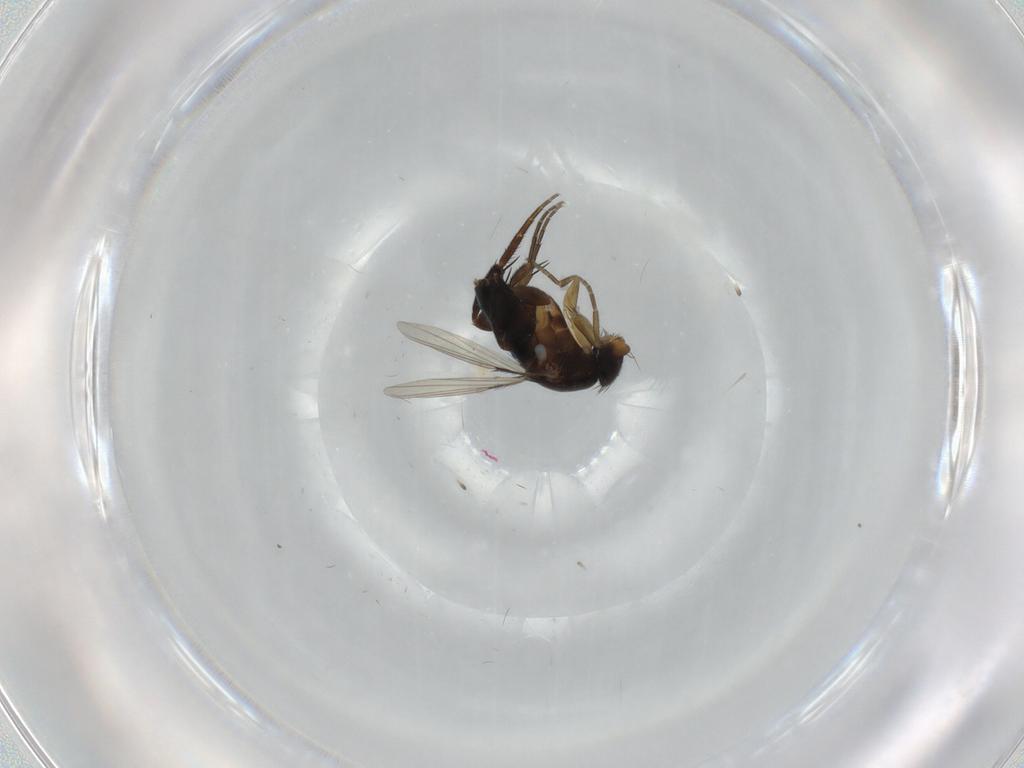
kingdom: Animalia
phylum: Arthropoda
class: Insecta
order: Diptera
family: Phoridae
